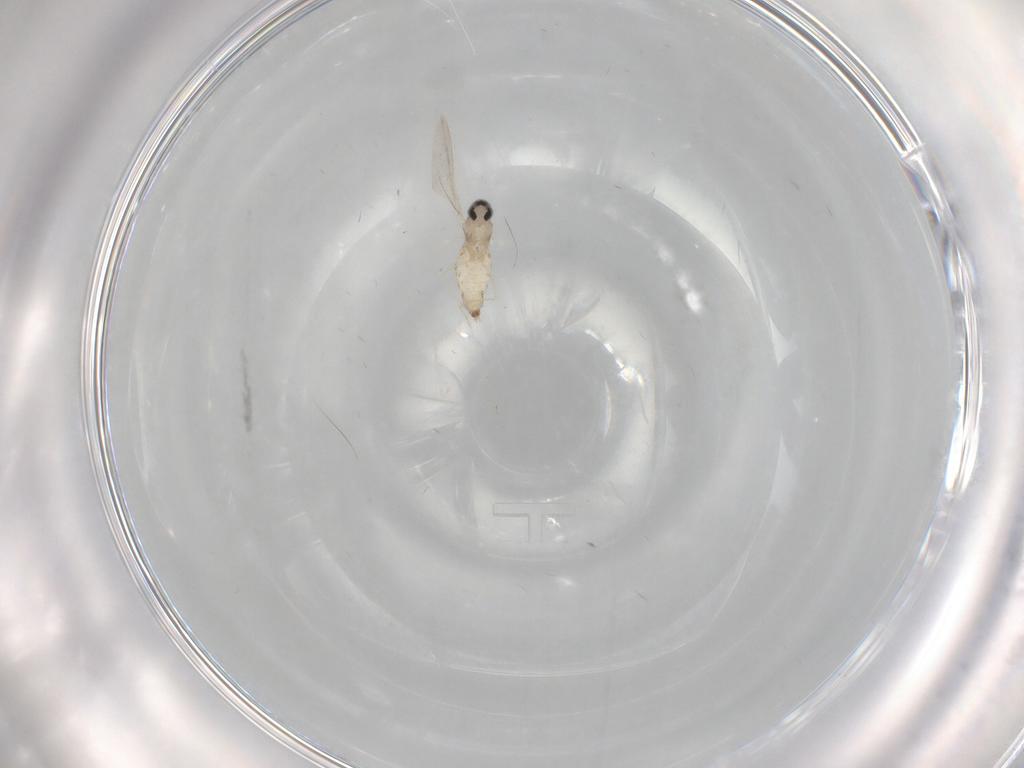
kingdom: Animalia
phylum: Arthropoda
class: Insecta
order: Diptera
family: Cecidomyiidae
